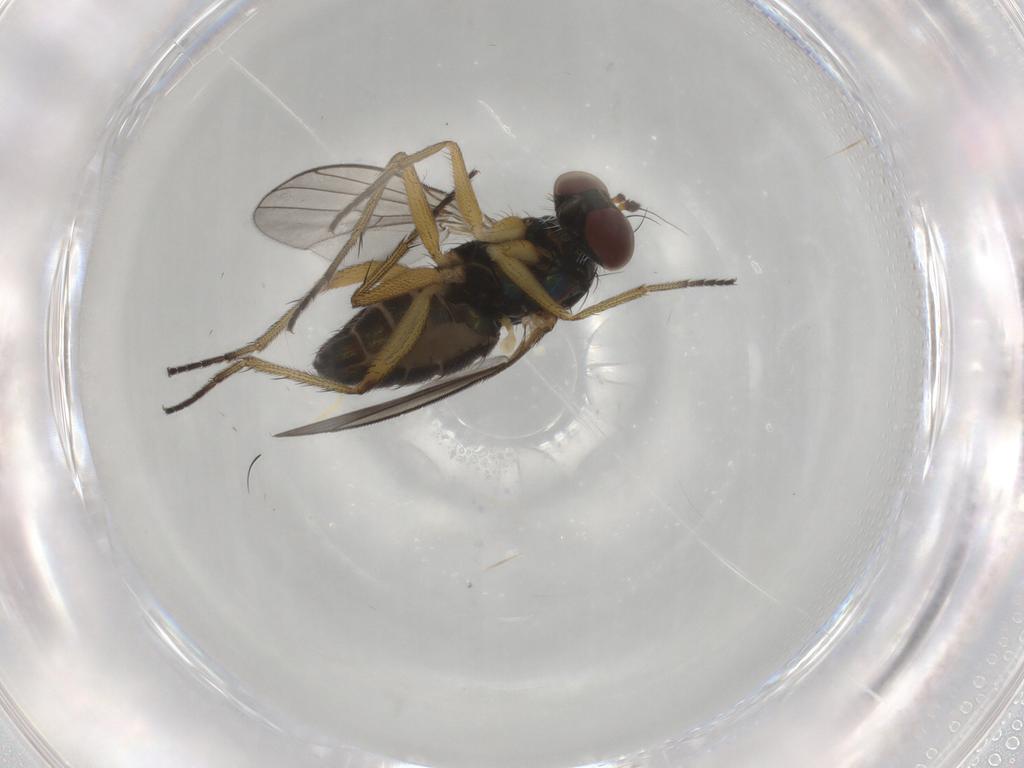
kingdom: Animalia
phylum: Arthropoda
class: Insecta
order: Diptera
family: Dolichopodidae
